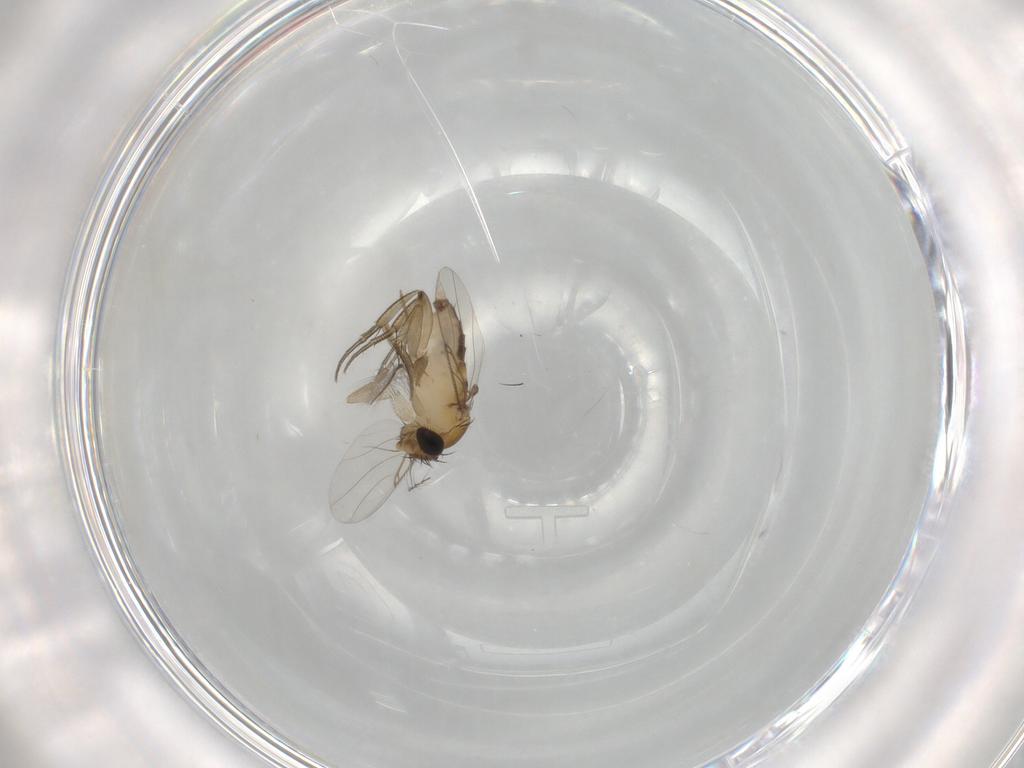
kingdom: Animalia
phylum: Arthropoda
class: Insecta
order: Diptera
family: Phoridae
